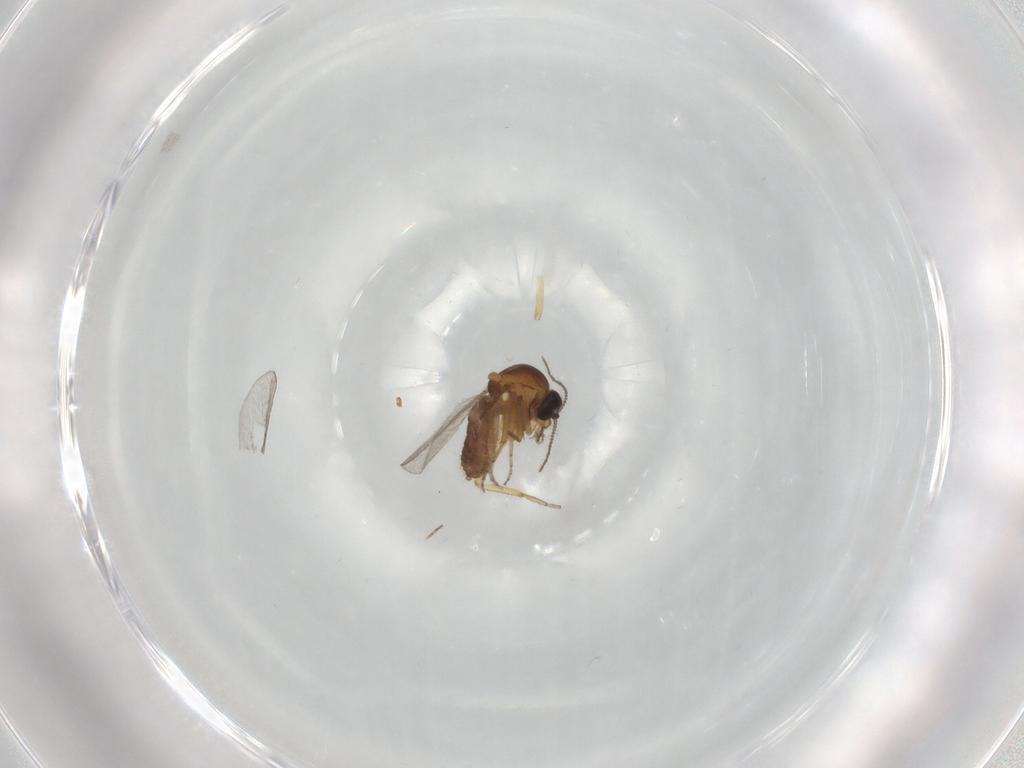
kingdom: Animalia
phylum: Arthropoda
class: Insecta
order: Diptera
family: Ceratopogonidae
